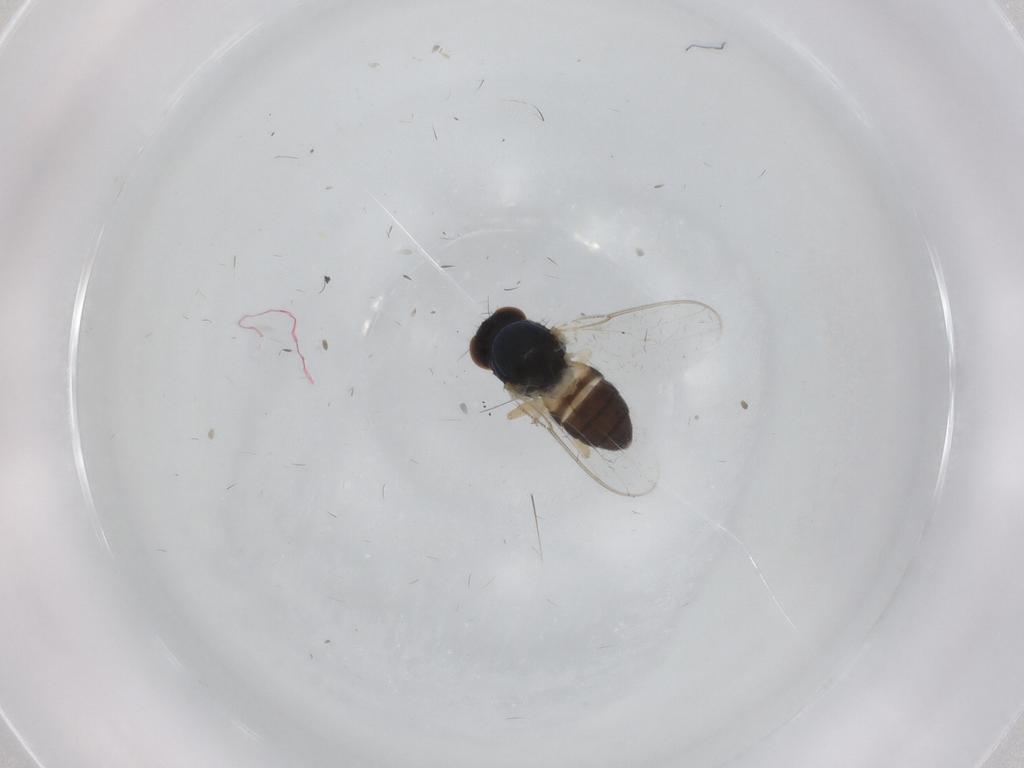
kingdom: Animalia
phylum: Arthropoda
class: Insecta
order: Diptera
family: Chloropidae
